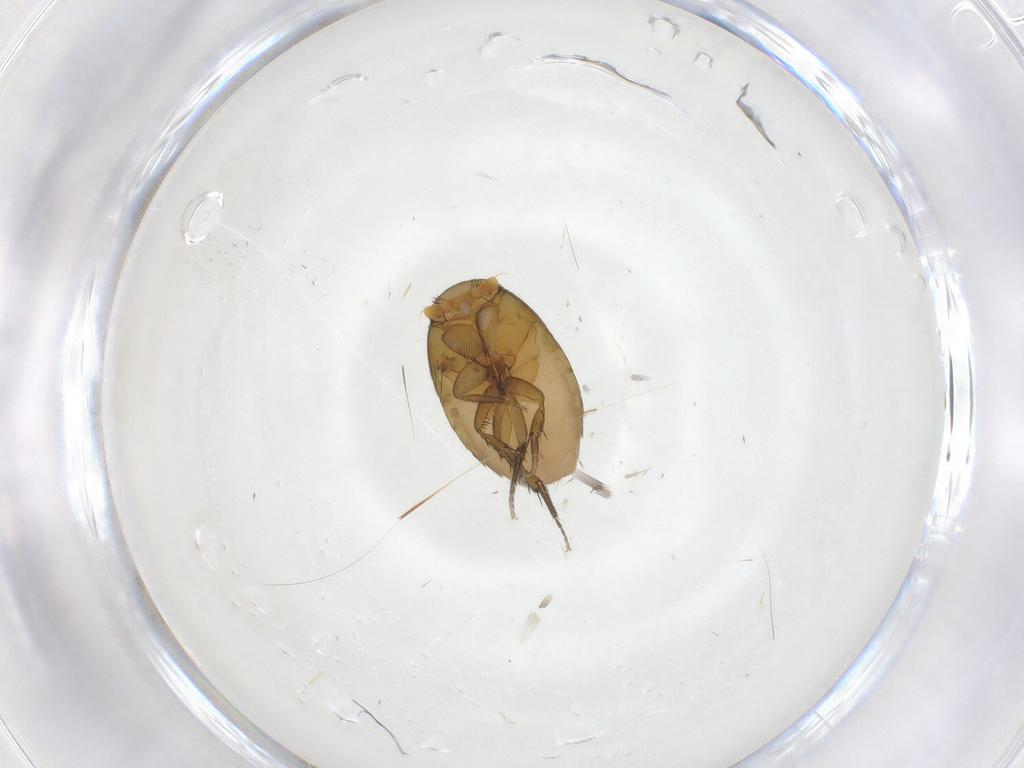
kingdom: Animalia
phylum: Arthropoda
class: Insecta
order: Diptera
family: Phoridae
